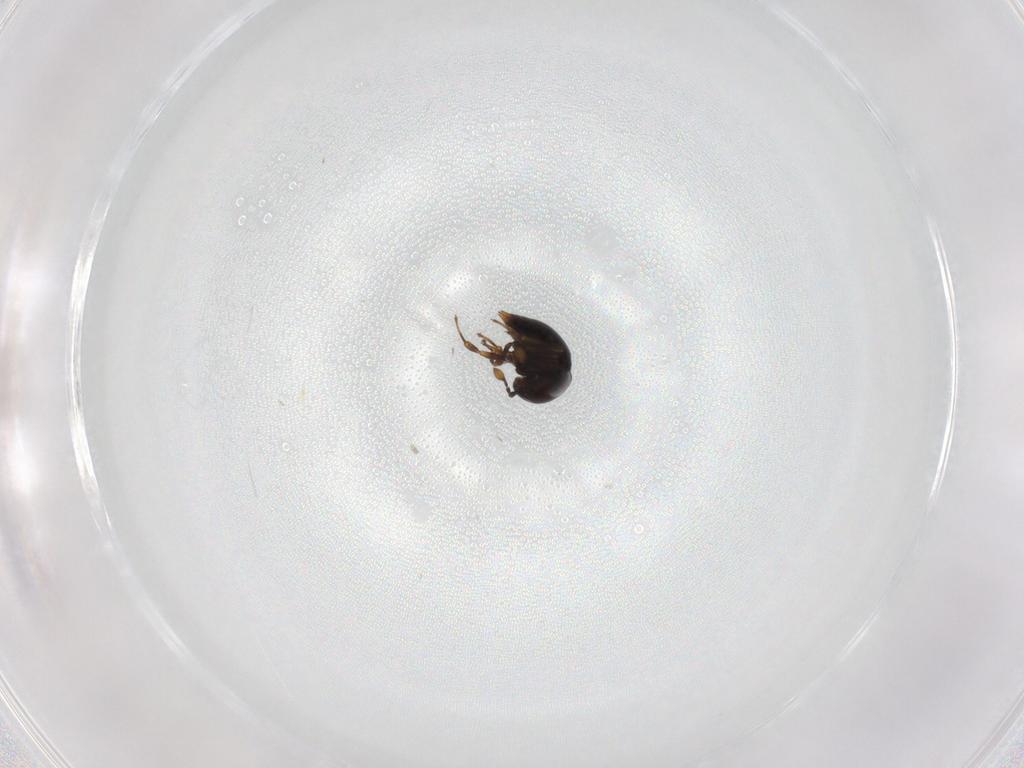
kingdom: Animalia
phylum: Arthropoda
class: Insecta
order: Hymenoptera
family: Scelionidae
